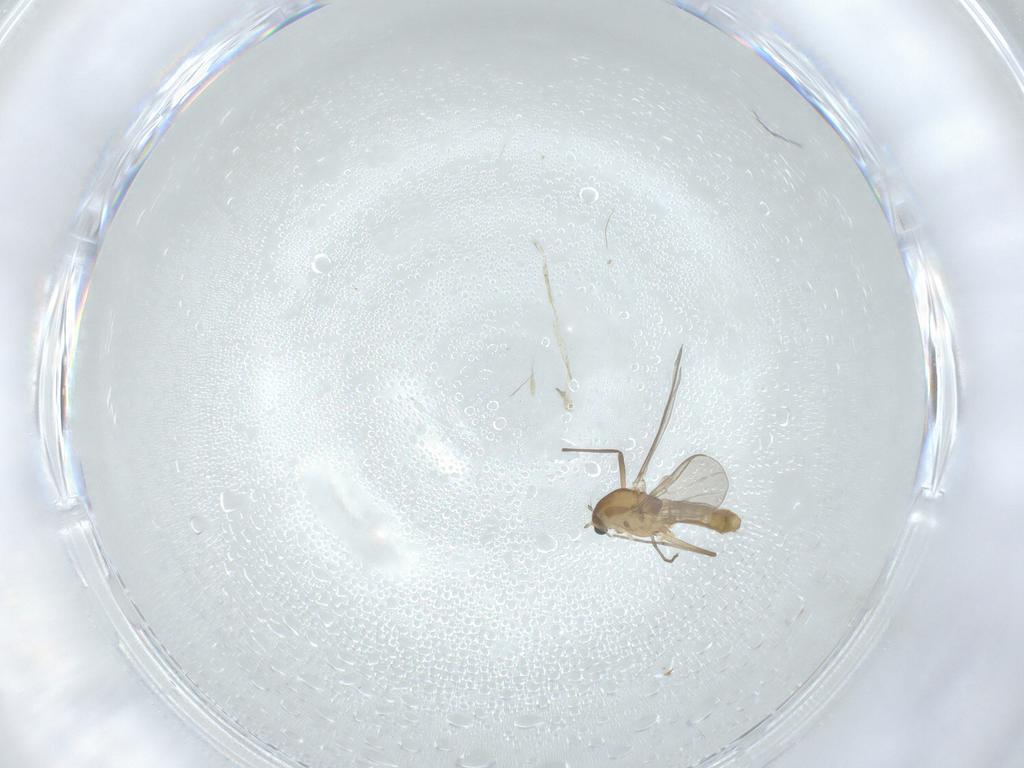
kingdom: Animalia
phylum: Arthropoda
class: Insecta
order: Diptera
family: Chironomidae
